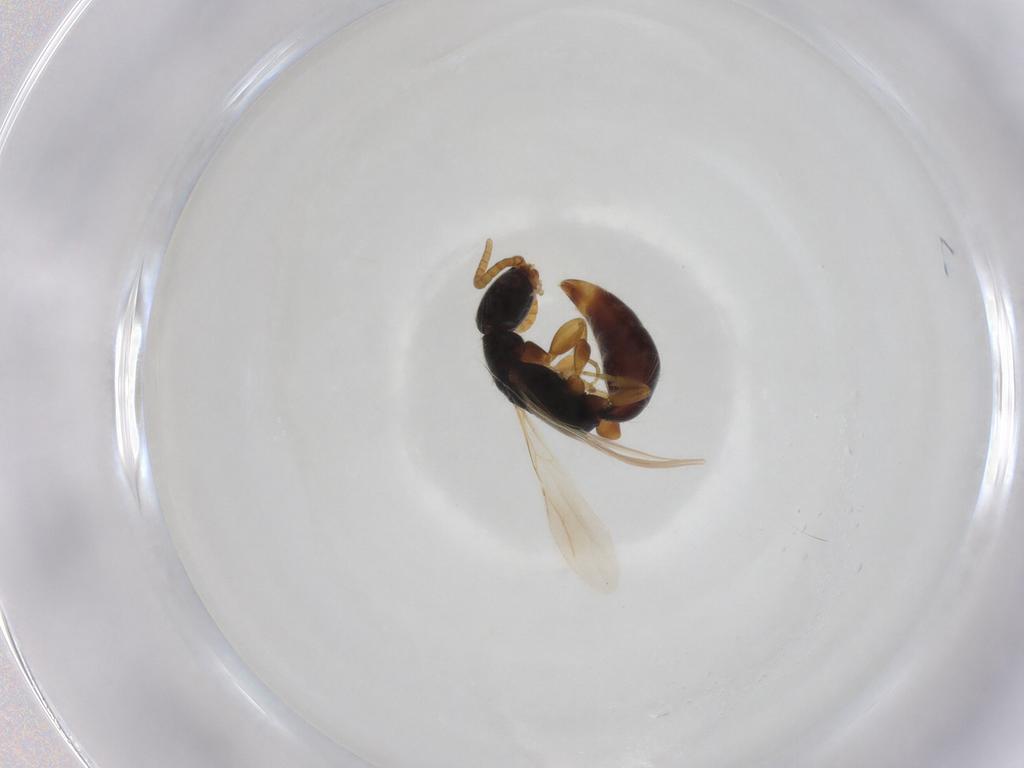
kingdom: Animalia
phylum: Arthropoda
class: Insecta
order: Hymenoptera
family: Bethylidae
